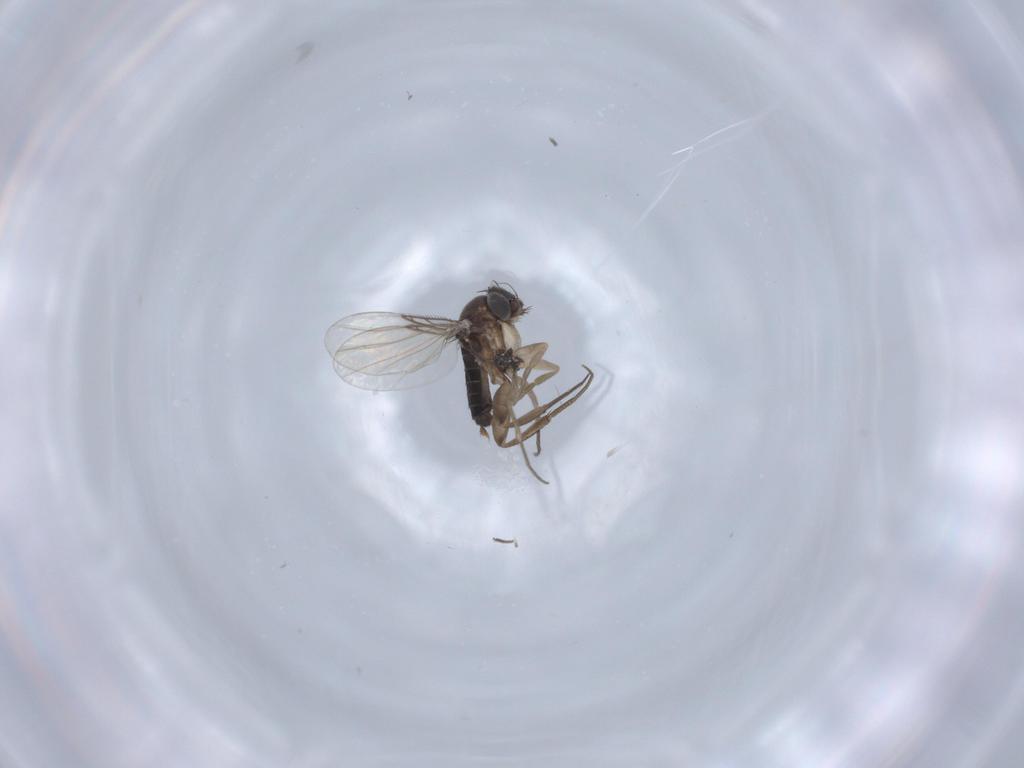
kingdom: Animalia
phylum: Arthropoda
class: Insecta
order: Diptera
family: Phoridae
